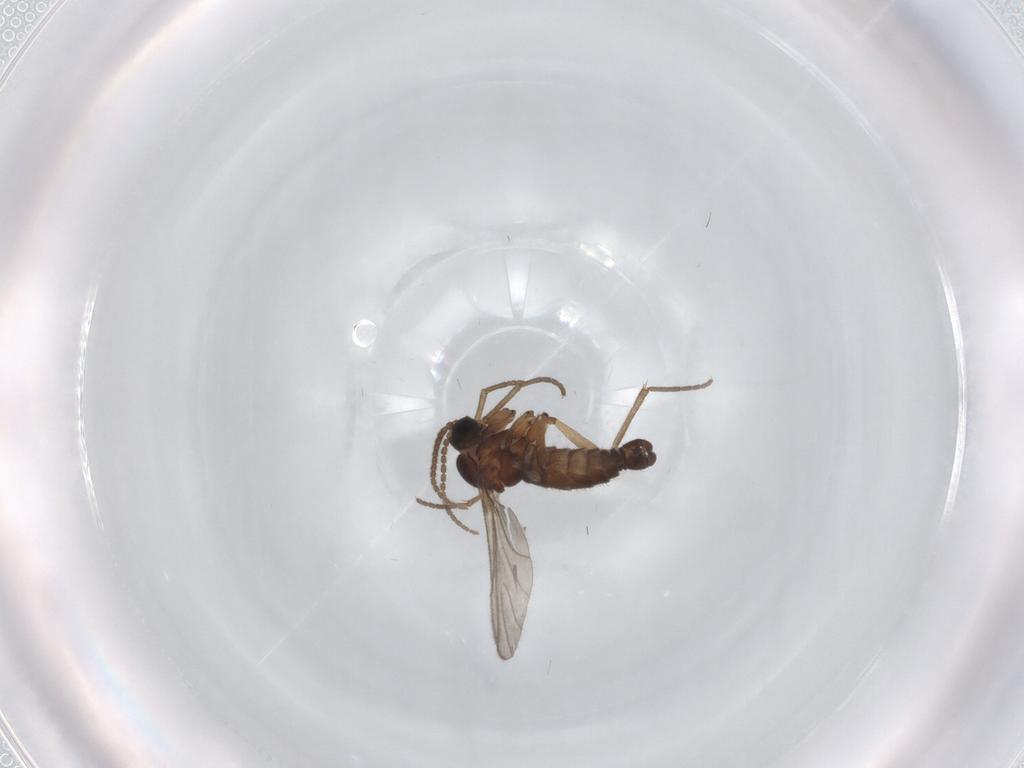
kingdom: Animalia
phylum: Arthropoda
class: Insecta
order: Diptera
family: Sciaridae
